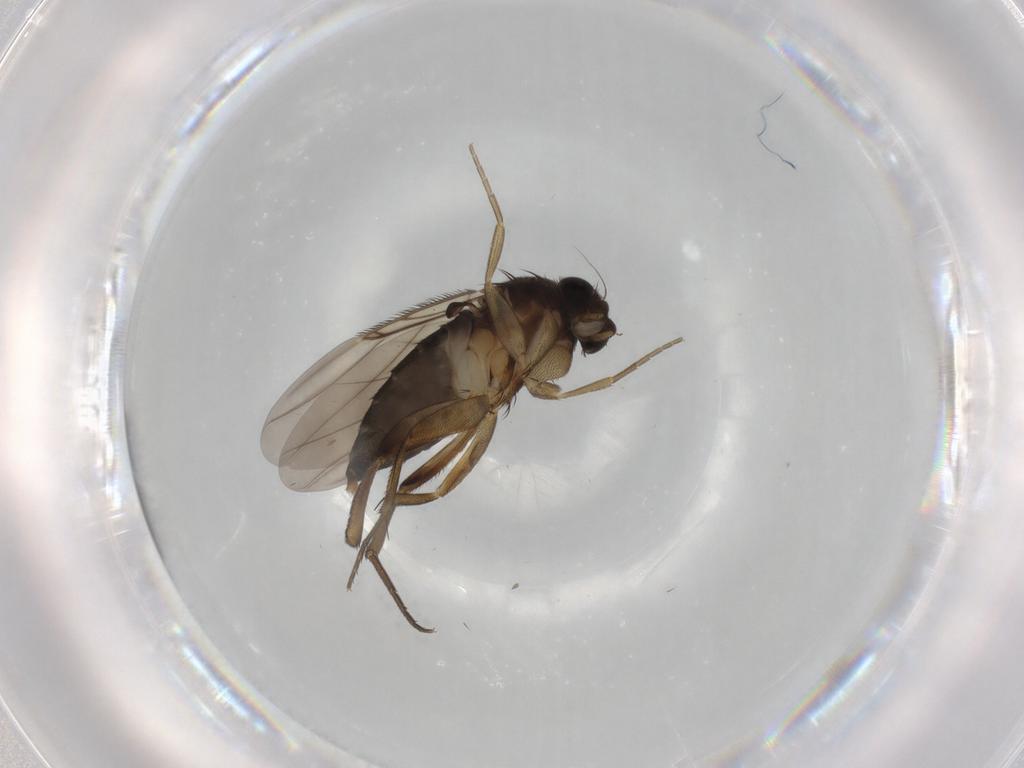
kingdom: Animalia
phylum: Arthropoda
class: Insecta
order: Diptera
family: Phoridae
